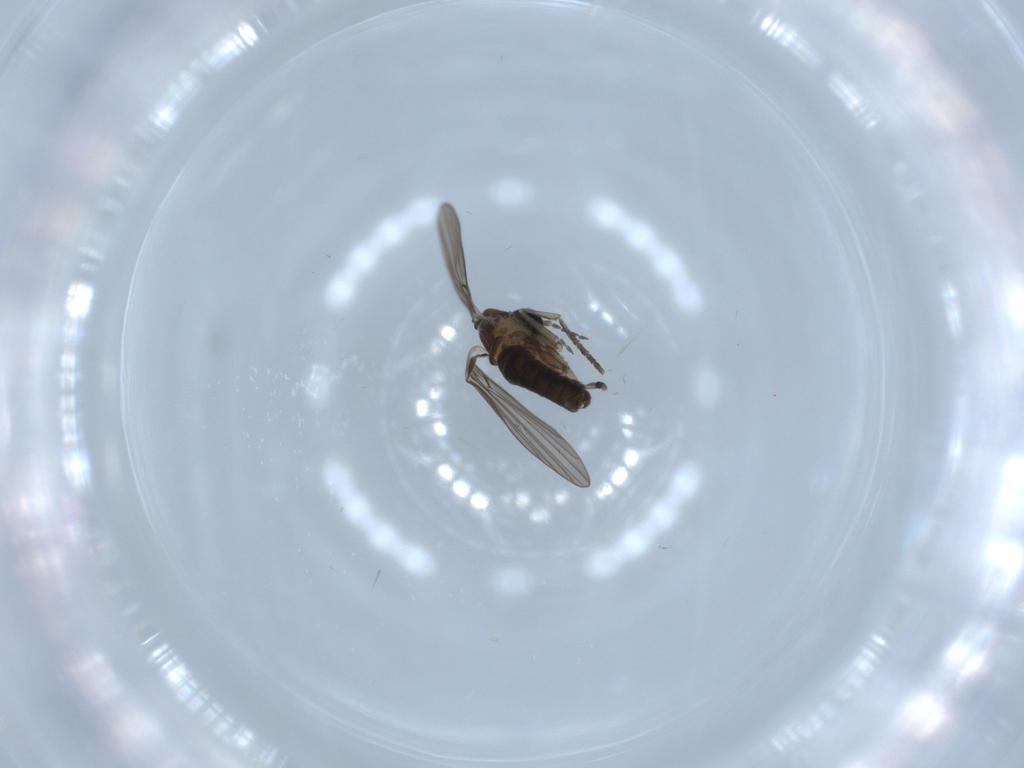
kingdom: Animalia
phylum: Arthropoda
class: Insecta
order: Diptera
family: Psychodidae
